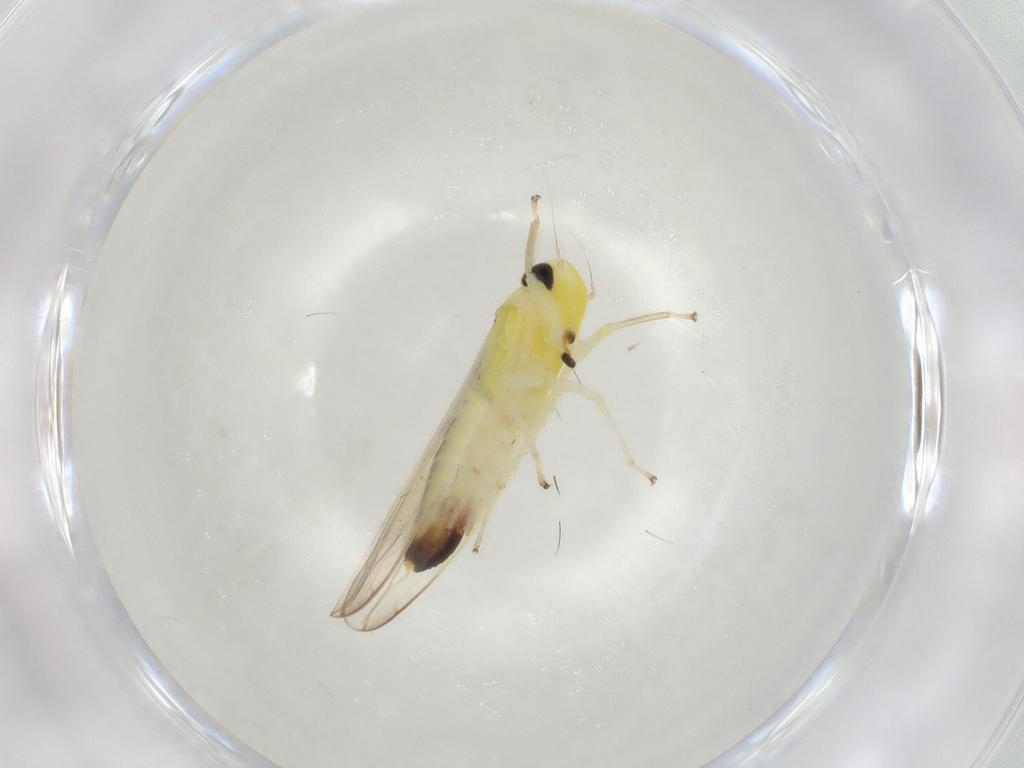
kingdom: Animalia
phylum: Arthropoda
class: Insecta
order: Hemiptera
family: Cicadellidae
